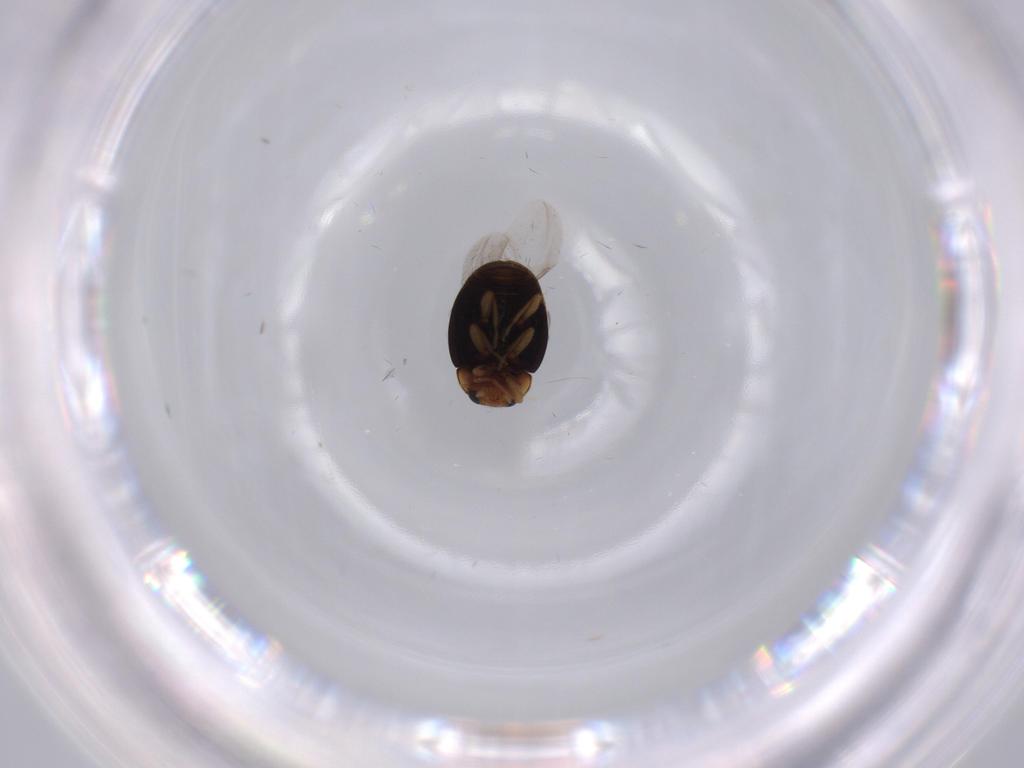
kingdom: Animalia
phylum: Arthropoda
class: Insecta
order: Coleoptera
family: Coccinellidae
